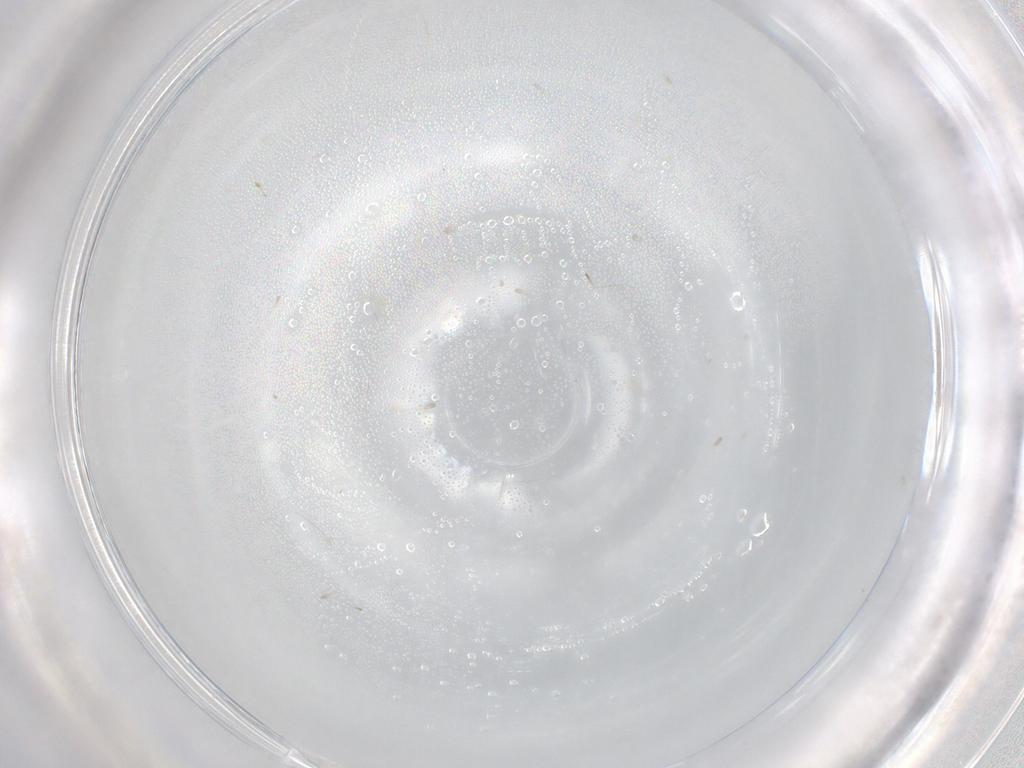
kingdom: Animalia
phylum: Arthropoda
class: Insecta
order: Hymenoptera
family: Mymaridae
